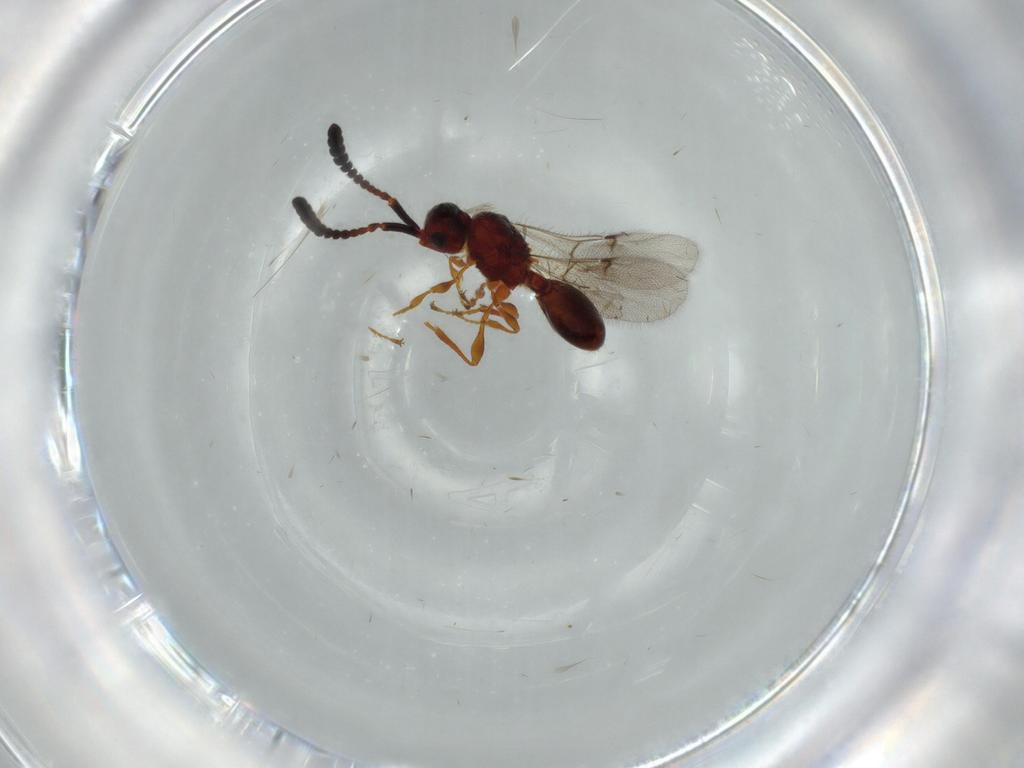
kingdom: Animalia
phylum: Arthropoda
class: Insecta
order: Hymenoptera
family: Diapriidae
